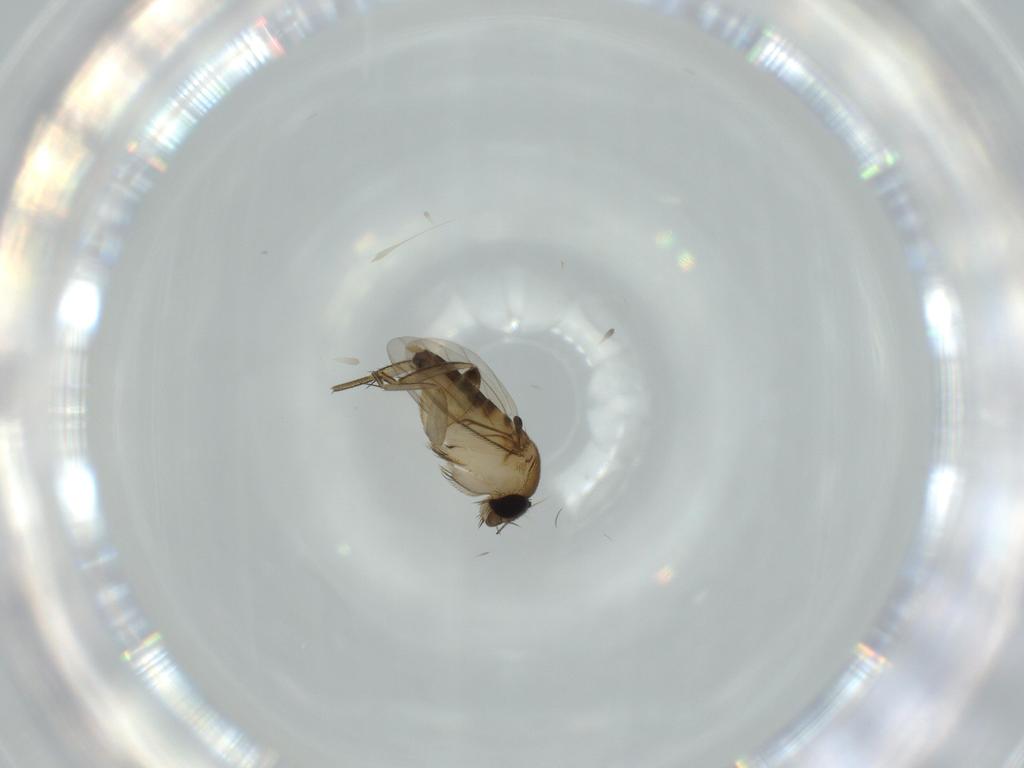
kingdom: Animalia
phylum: Arthropoda
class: Insecta
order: Diptera
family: Phoridae
